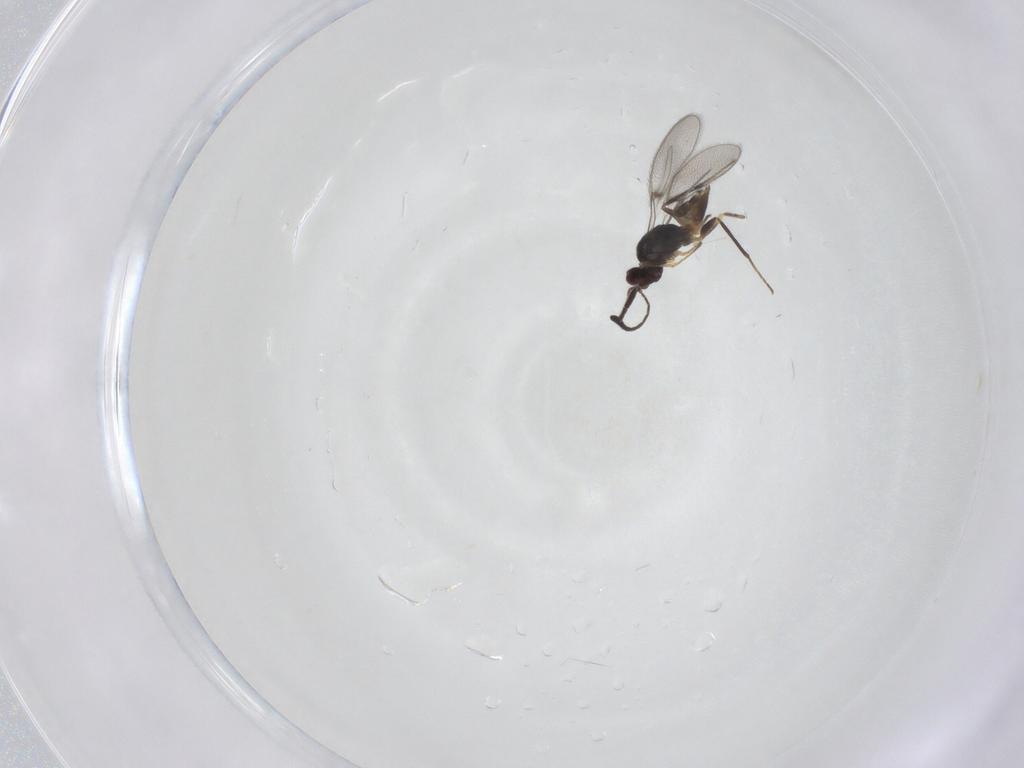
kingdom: Animalia
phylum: Arthropoda
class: Insecta
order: Hymenoptera
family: Mymaridae
